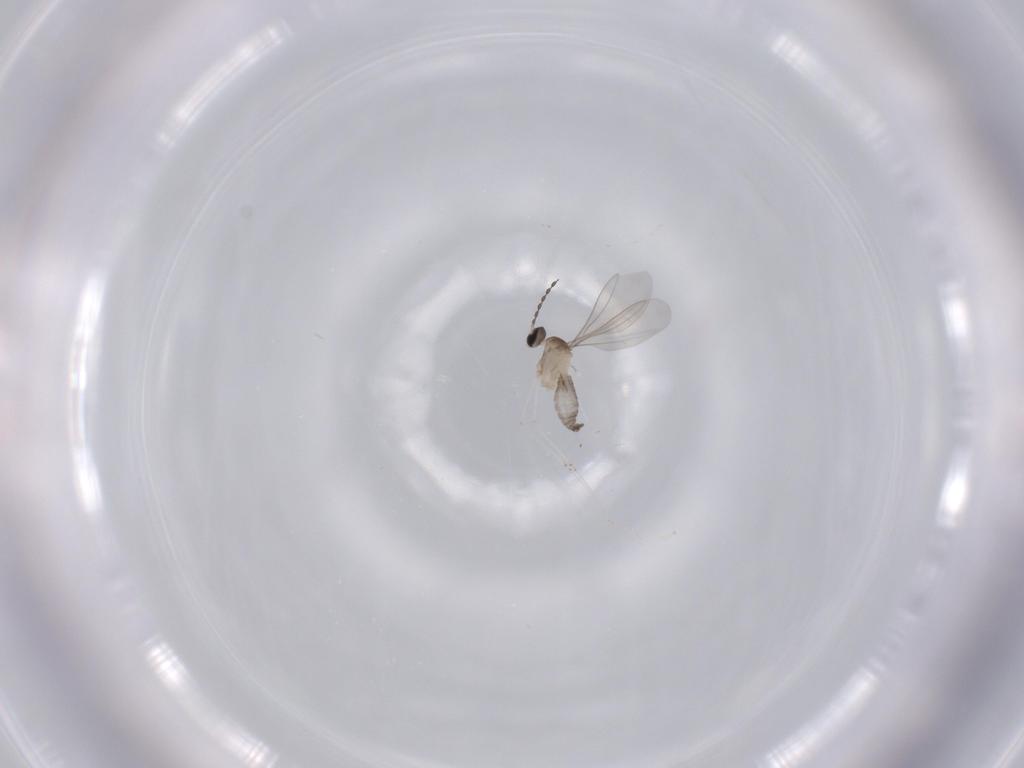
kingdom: Animalia
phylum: Arthropoda
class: Insecta
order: Diptera
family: Cecidomyiidae
